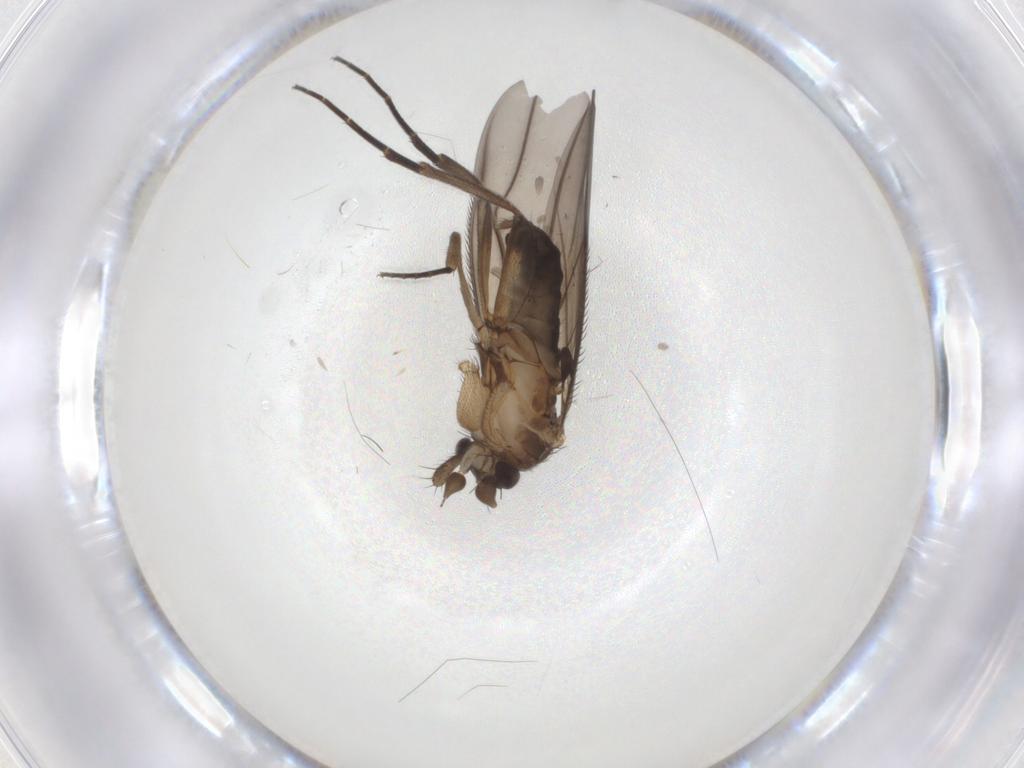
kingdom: Animalia
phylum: Arthropoda
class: Insecta
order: Diptera
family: Phoridae
